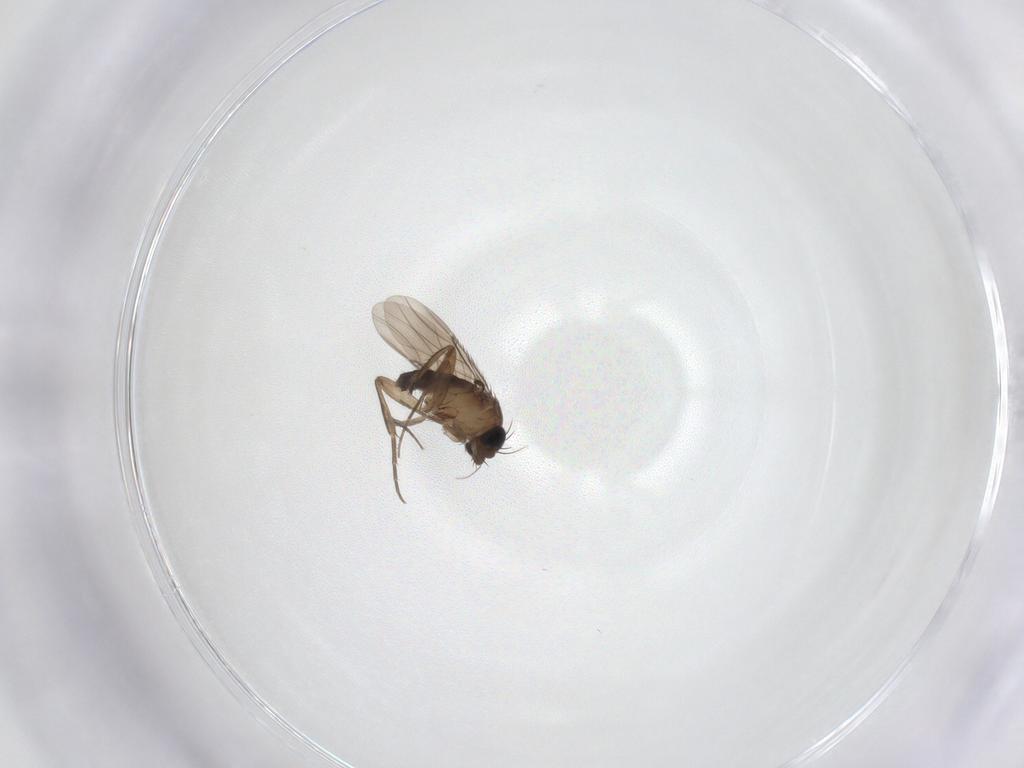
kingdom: Animalia
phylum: Arthropoda
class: Insecta
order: Diptera
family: Phoridae
